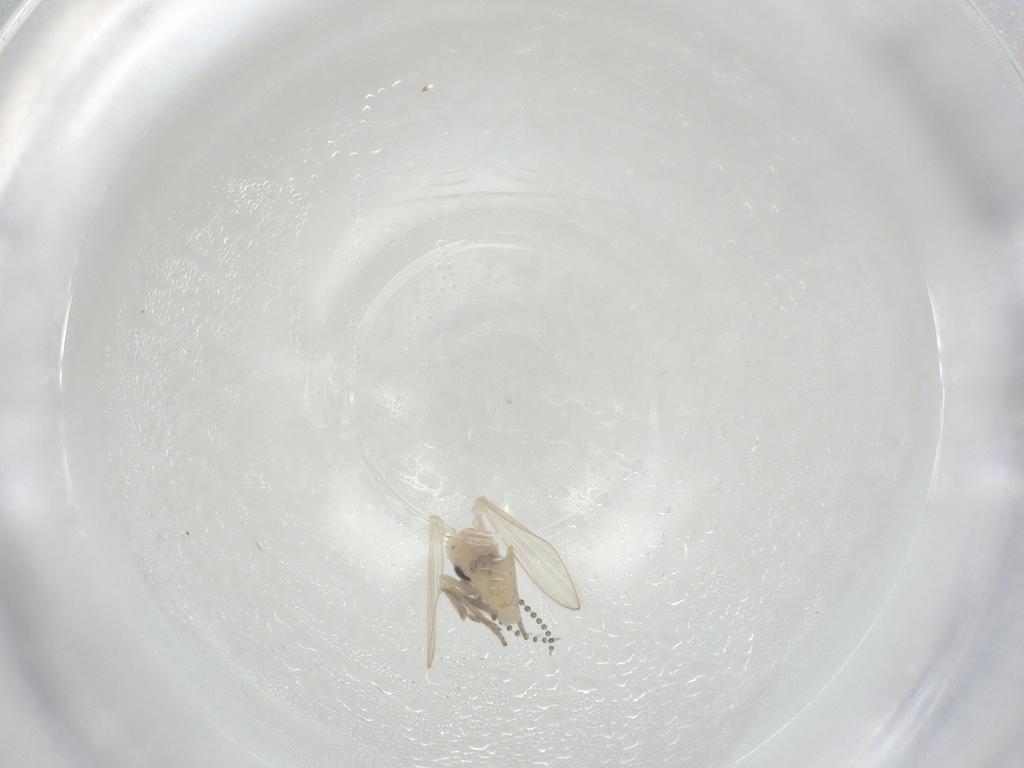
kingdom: Animalia
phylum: Arthropoda
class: Insecta
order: Diptera
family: Psychodidae
